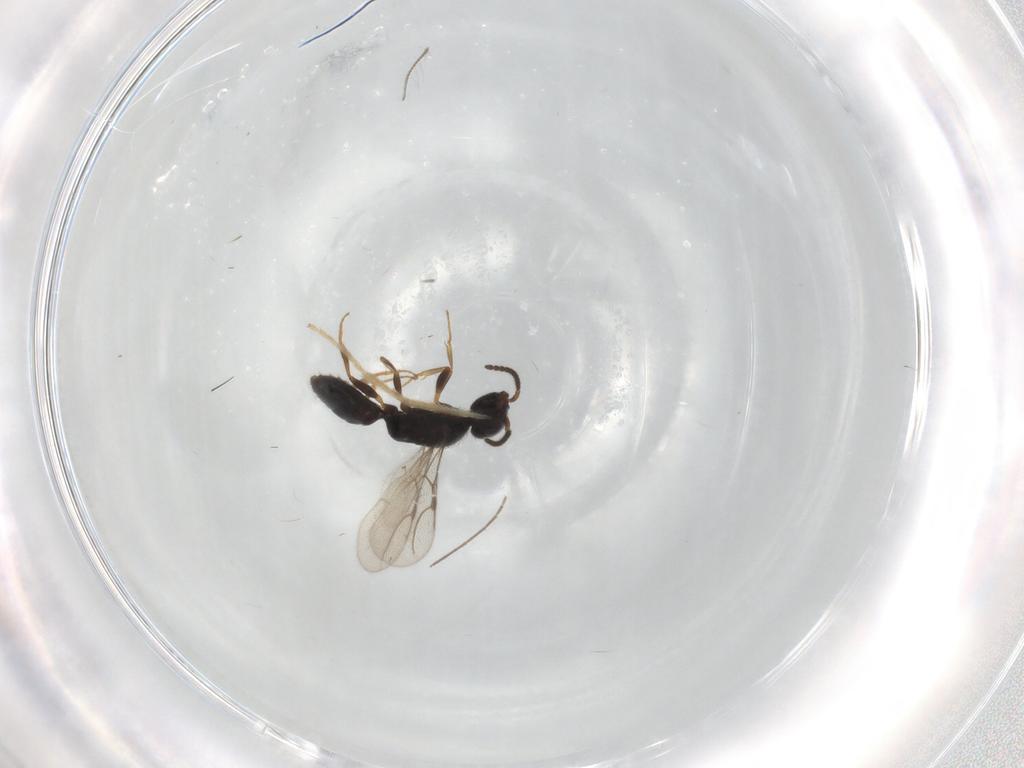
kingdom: Animalia
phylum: Arthropoda
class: Insecta
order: Hymenoptera
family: Bethylidae
